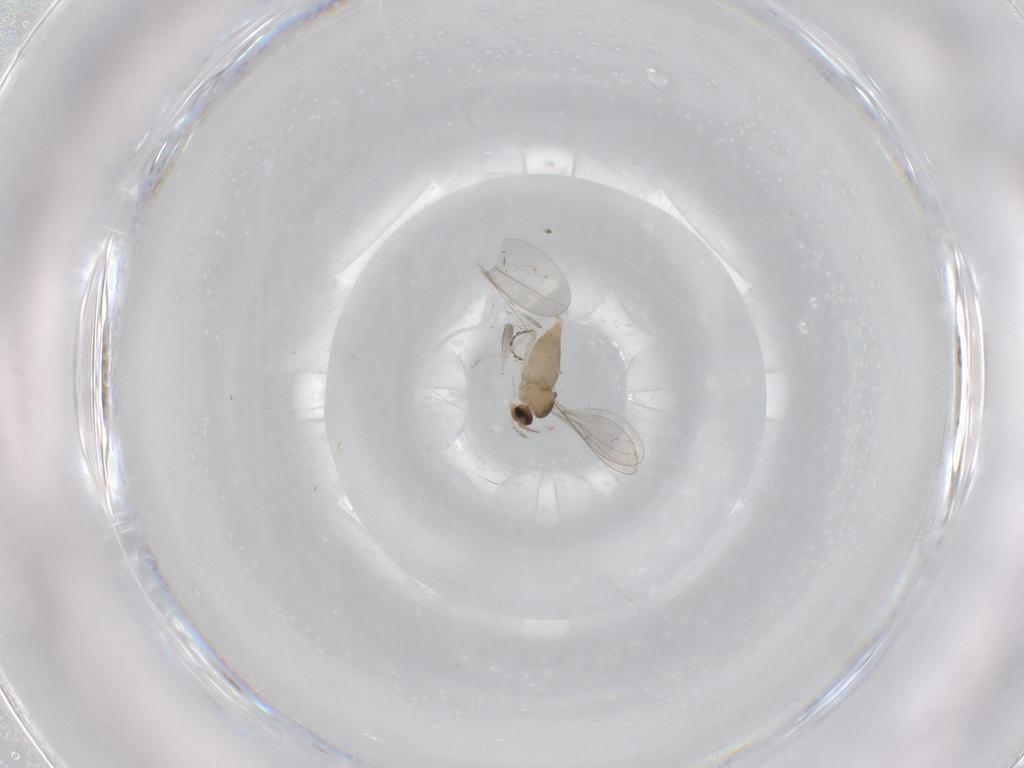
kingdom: Animalia
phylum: Arthropoda
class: Insecta
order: Diptera
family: Cecidomyiidae
